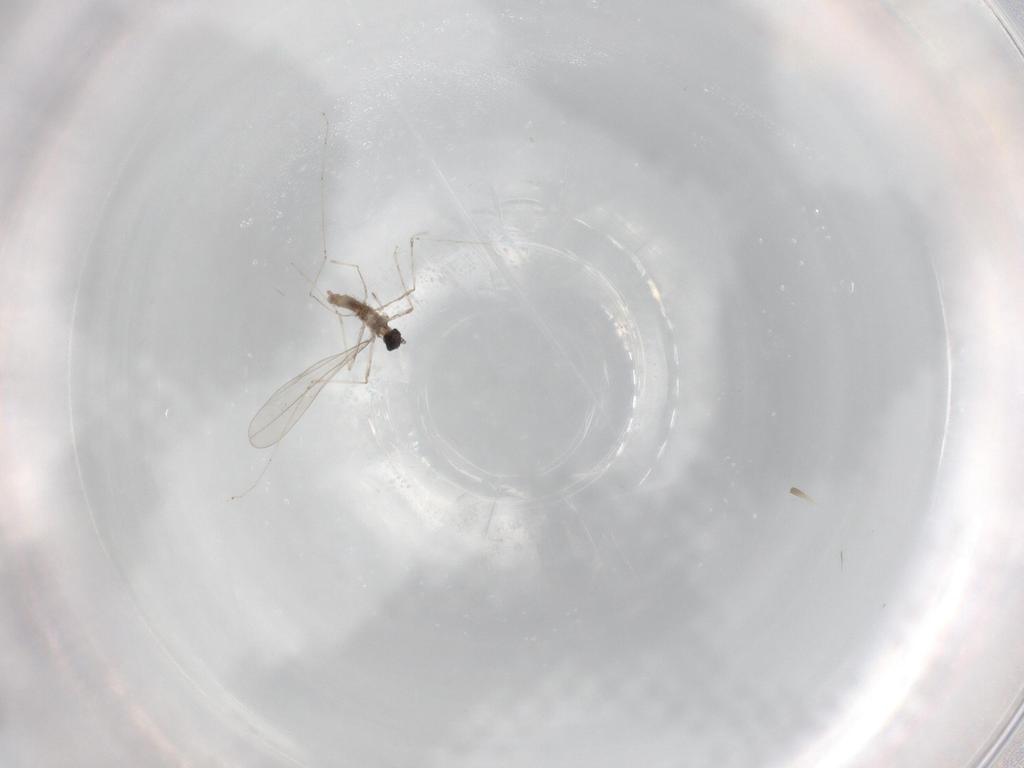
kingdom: Animalia
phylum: Arthropoda
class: Insecta
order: Diptera
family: Cecidomyiidae
